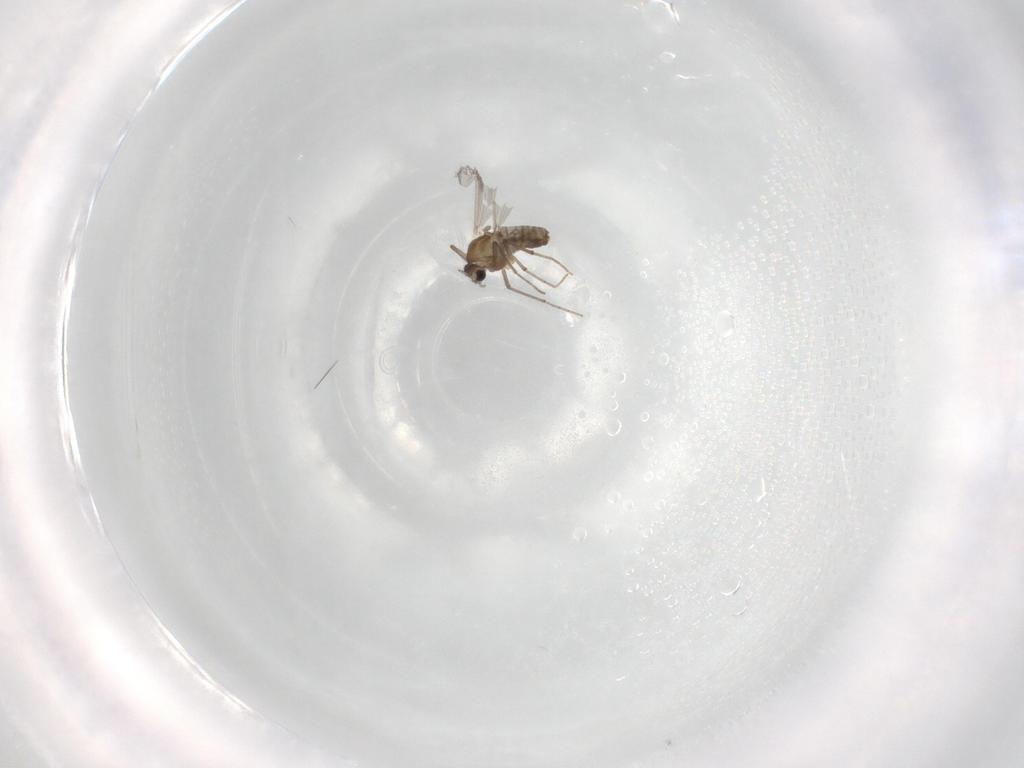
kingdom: Animalia
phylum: Arthropoda
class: Insecta
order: Diptera
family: Chironomidae
